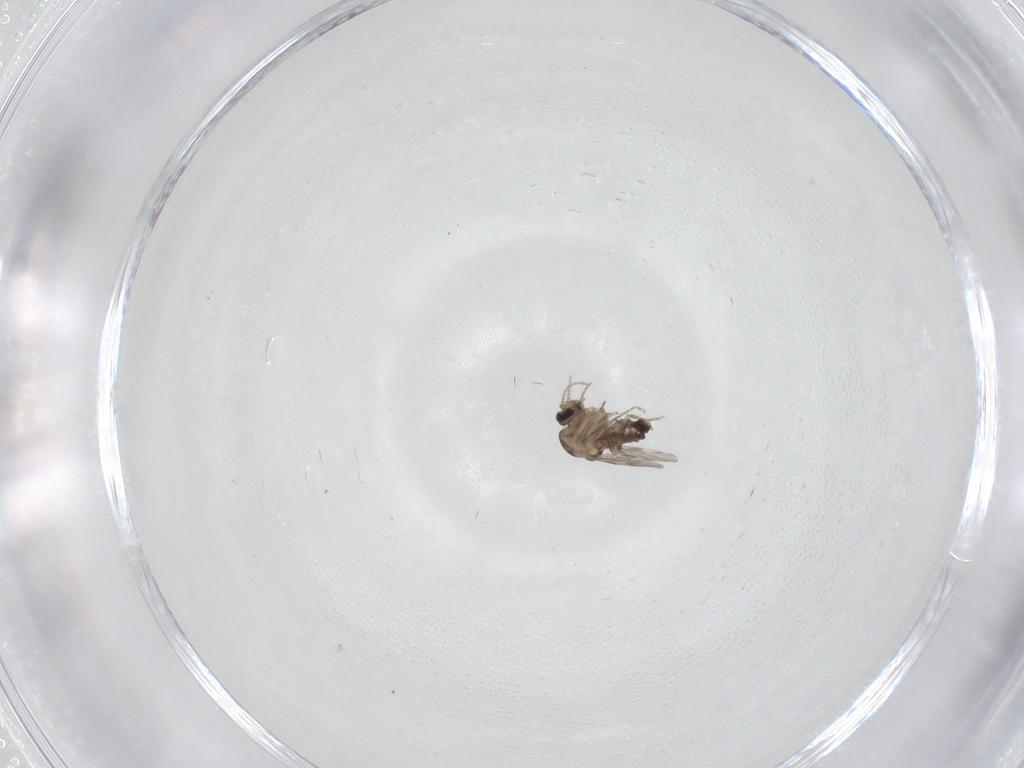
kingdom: Animalia
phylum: Arthropoda
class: Insecta
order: Diptera
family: Ceratopogonidae
